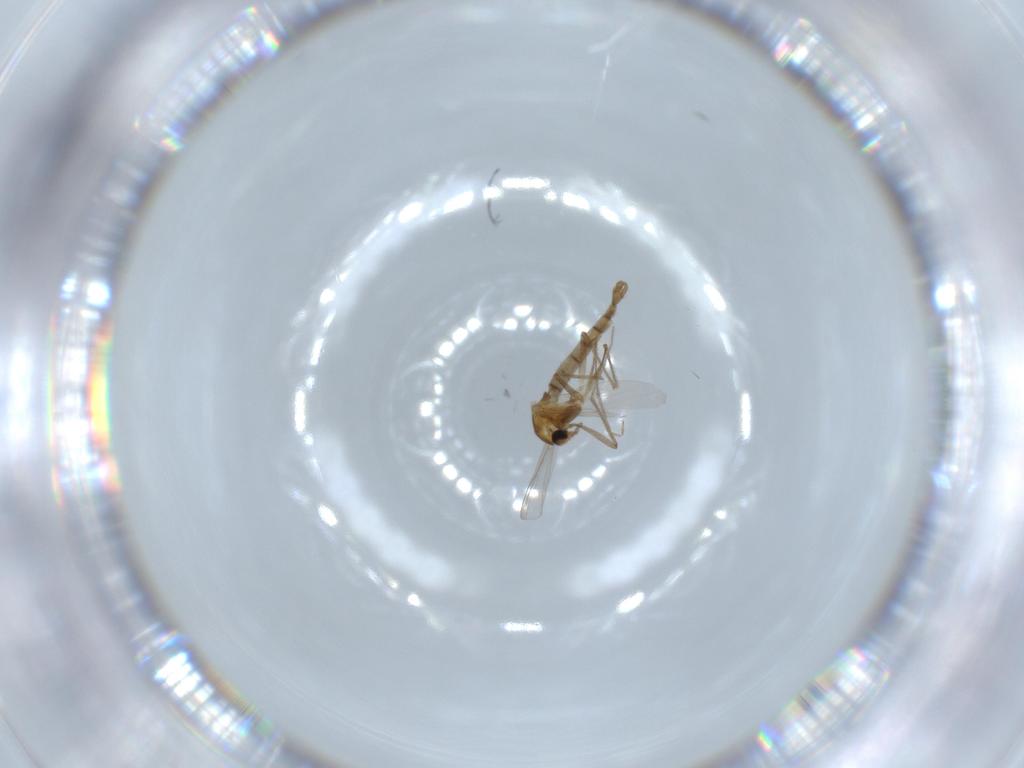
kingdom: Animalia
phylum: Arthropoda
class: Insecta
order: Diptera
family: Chironomidae
